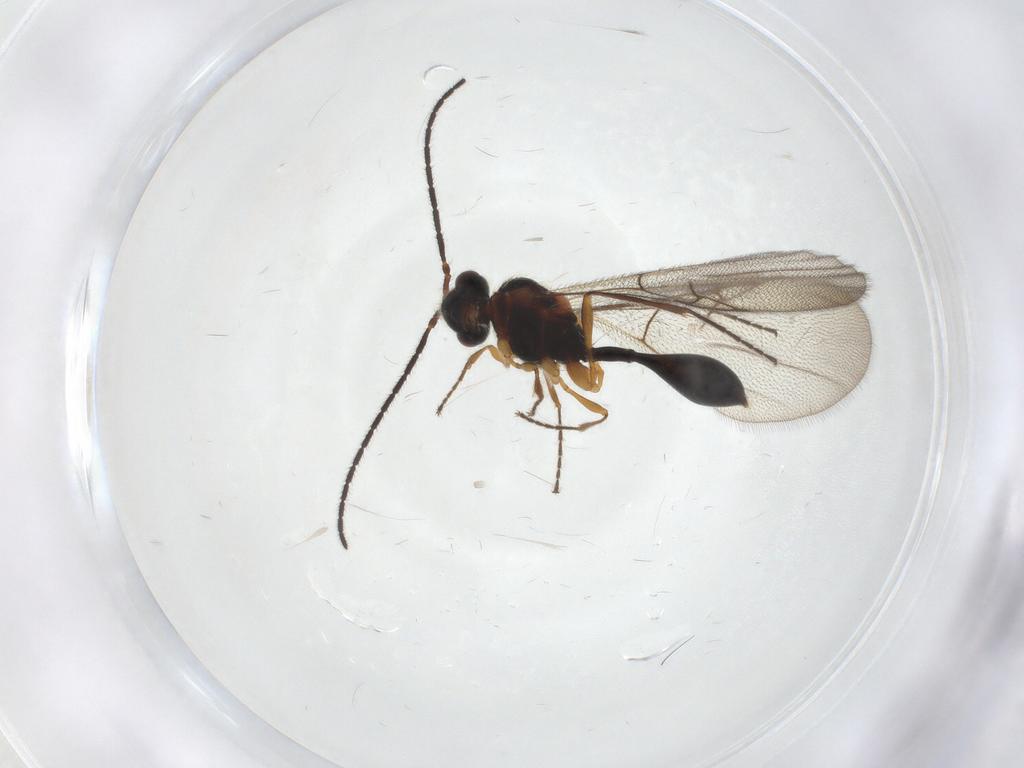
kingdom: Animalia
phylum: Arthropoda
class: Insecta
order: Hymenoptera
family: Diapriidae
